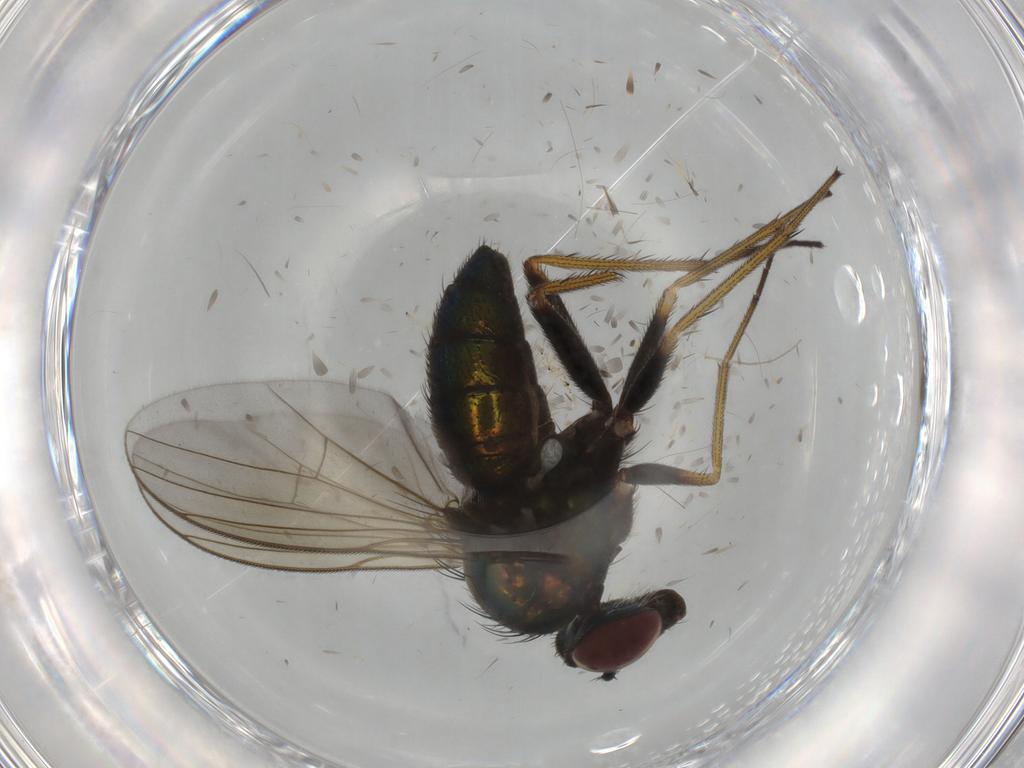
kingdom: Animalia
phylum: Arthropoda
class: Insecta
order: Diptera
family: Dolichopodidae
